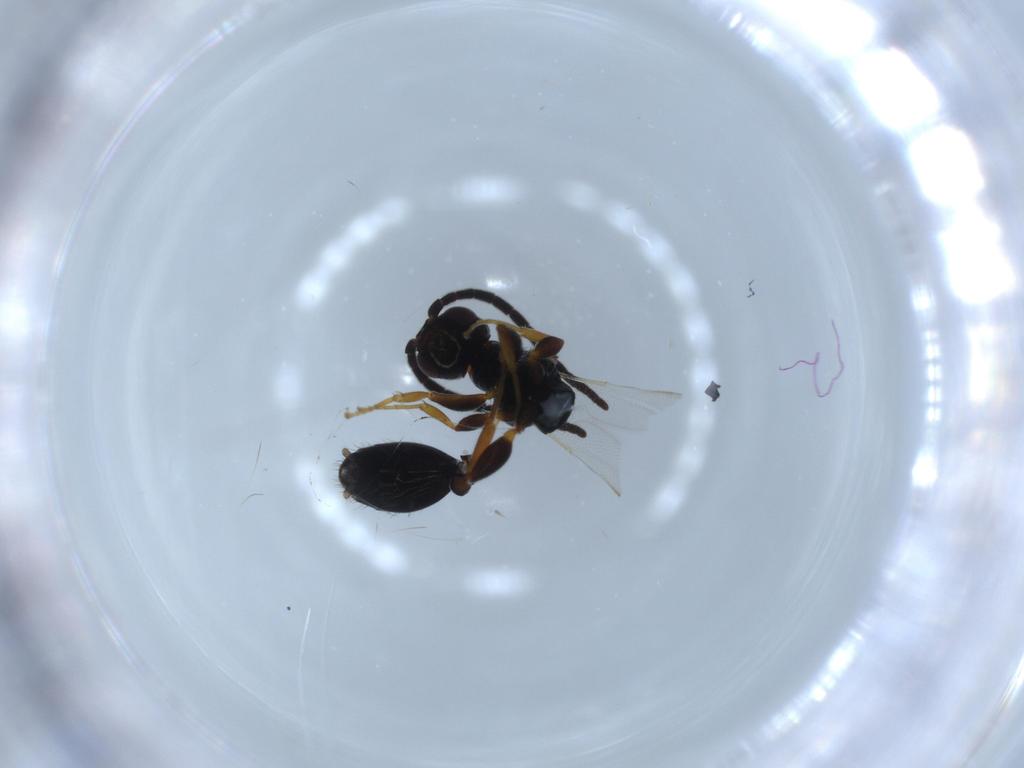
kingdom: Animalia
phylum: Arthropoda
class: Insecta
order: Hymenoptera
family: Bethylidae
